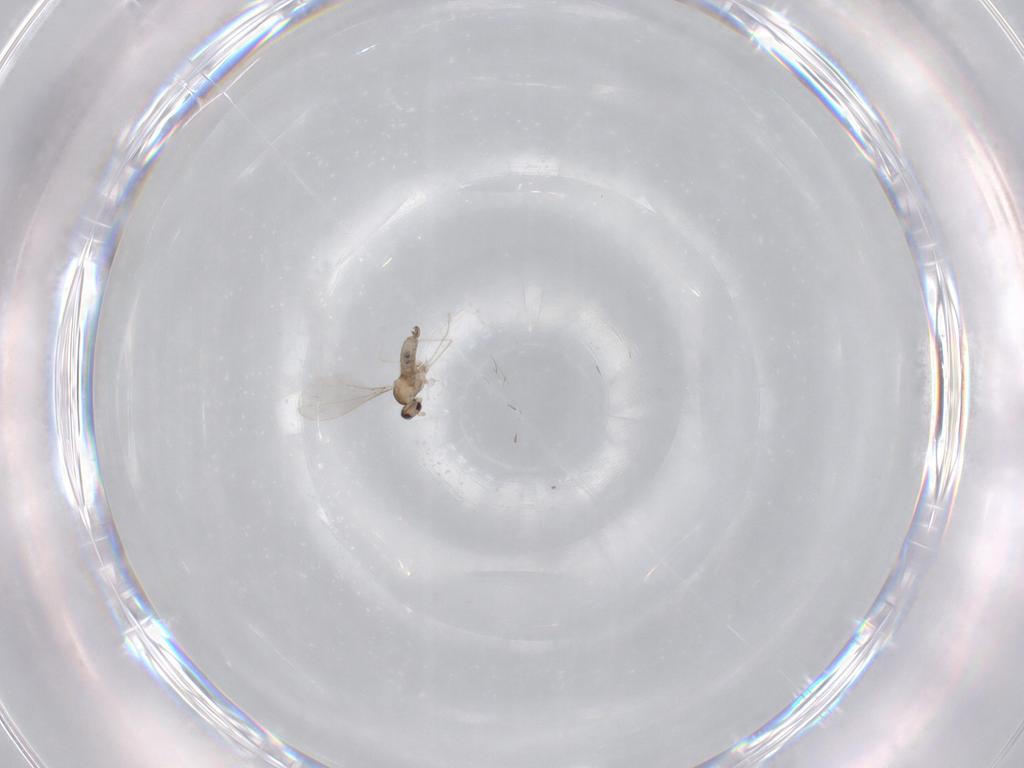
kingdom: Animalia
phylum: Arthropoda
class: Insecta
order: Diptera
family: Cecidomyiidae
